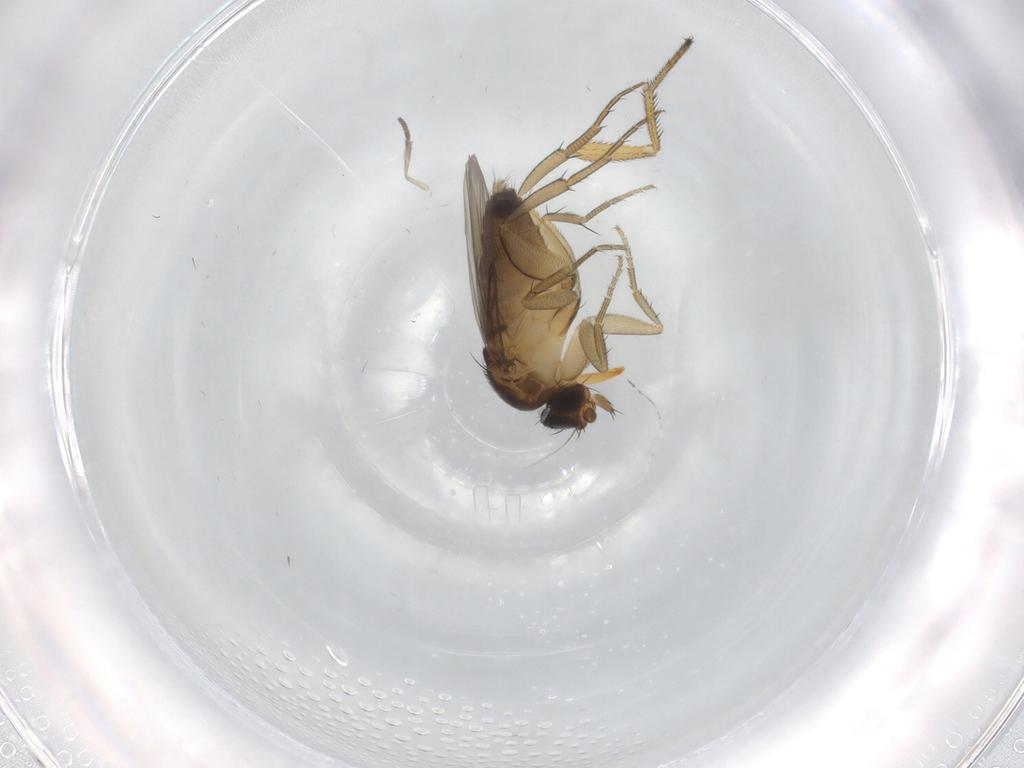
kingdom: Animalia
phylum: Arthropoda
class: Insecta
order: Diptera
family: Dolichopodidae
